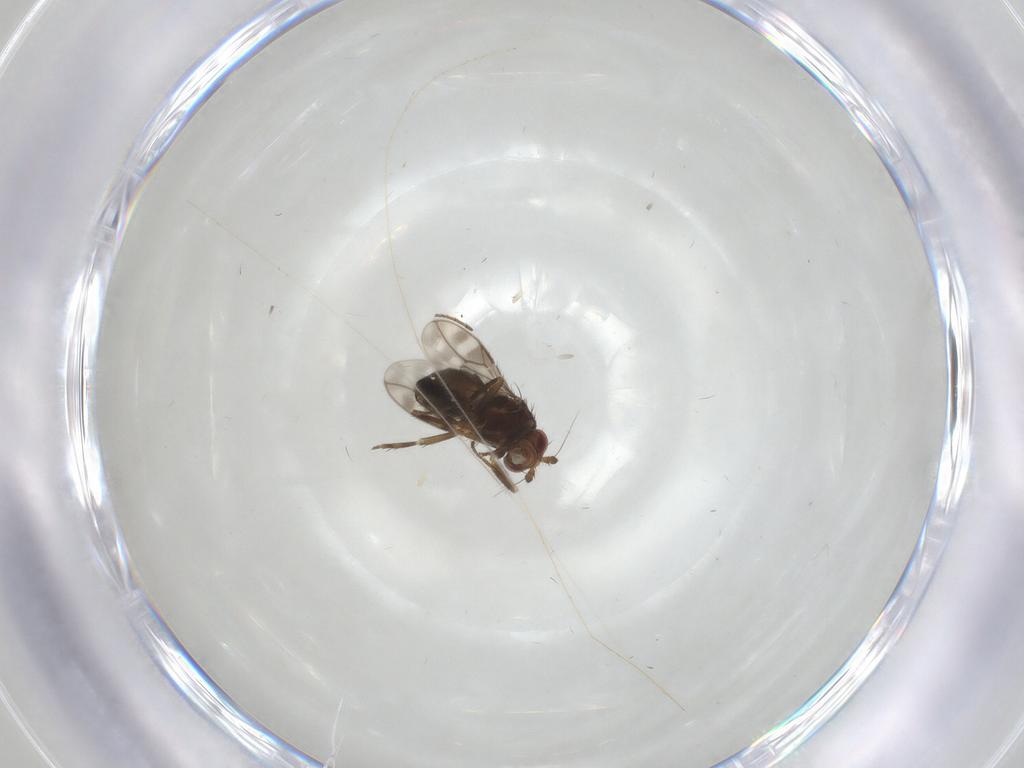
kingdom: Animalia
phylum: Arthropoda
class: Insecta
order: Diptera
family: Sphaeroceridae
